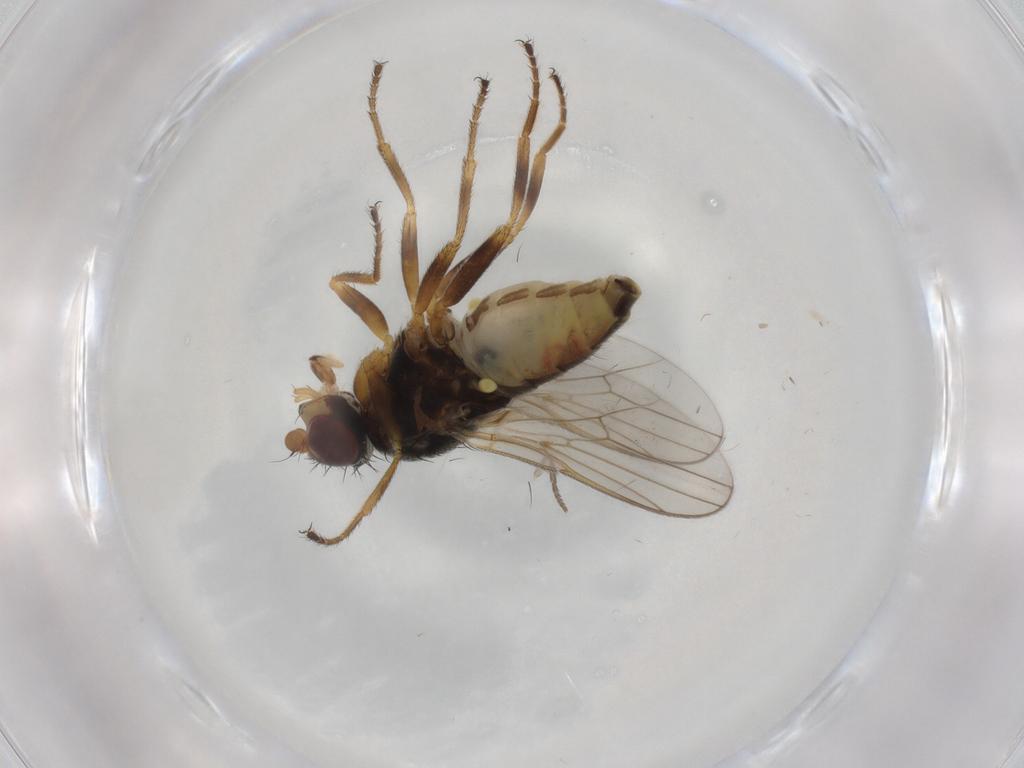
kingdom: Animalia
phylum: Arthropoda
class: Insecta
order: Diptera
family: Chloropidae
